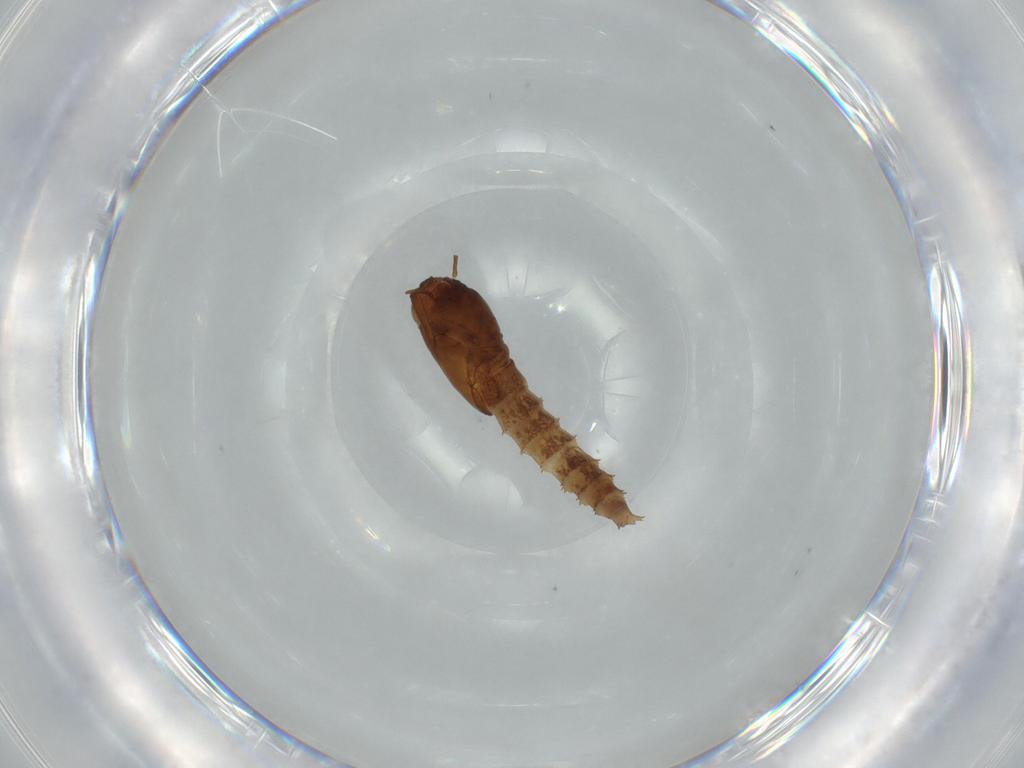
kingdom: Animalia
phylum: Arthropoda
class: Insecta
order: Diptera
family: Ceratopogonidae
